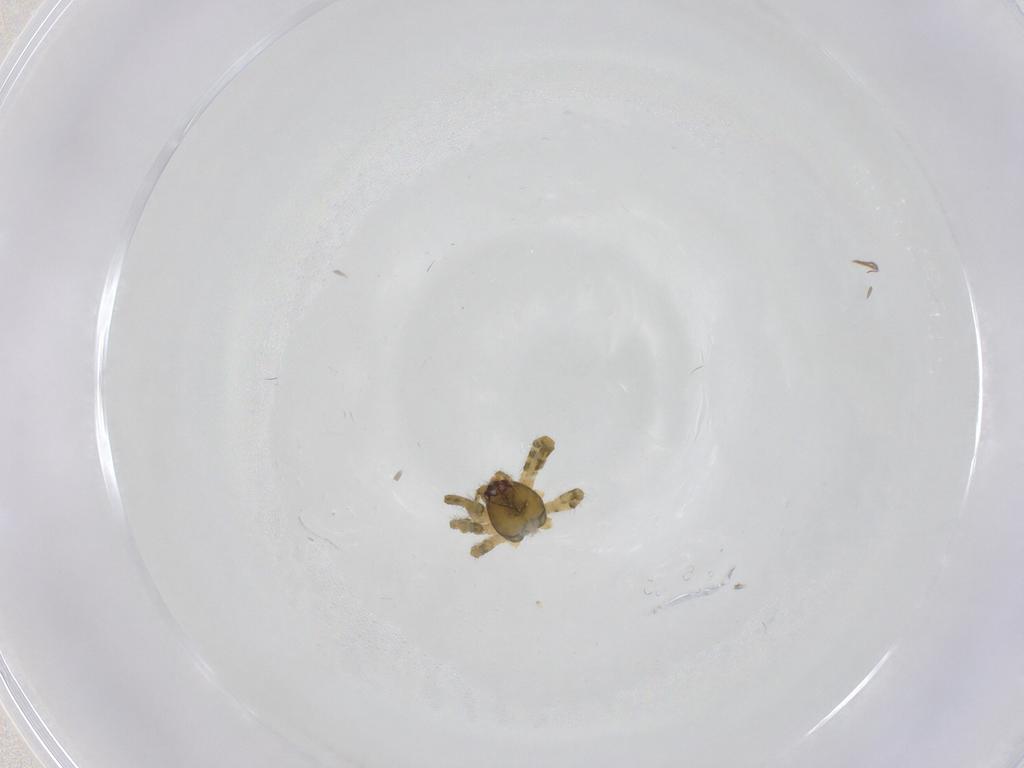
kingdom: Animalia
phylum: Arthropoda
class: Arachnida
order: Araneae
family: Theridiidae
